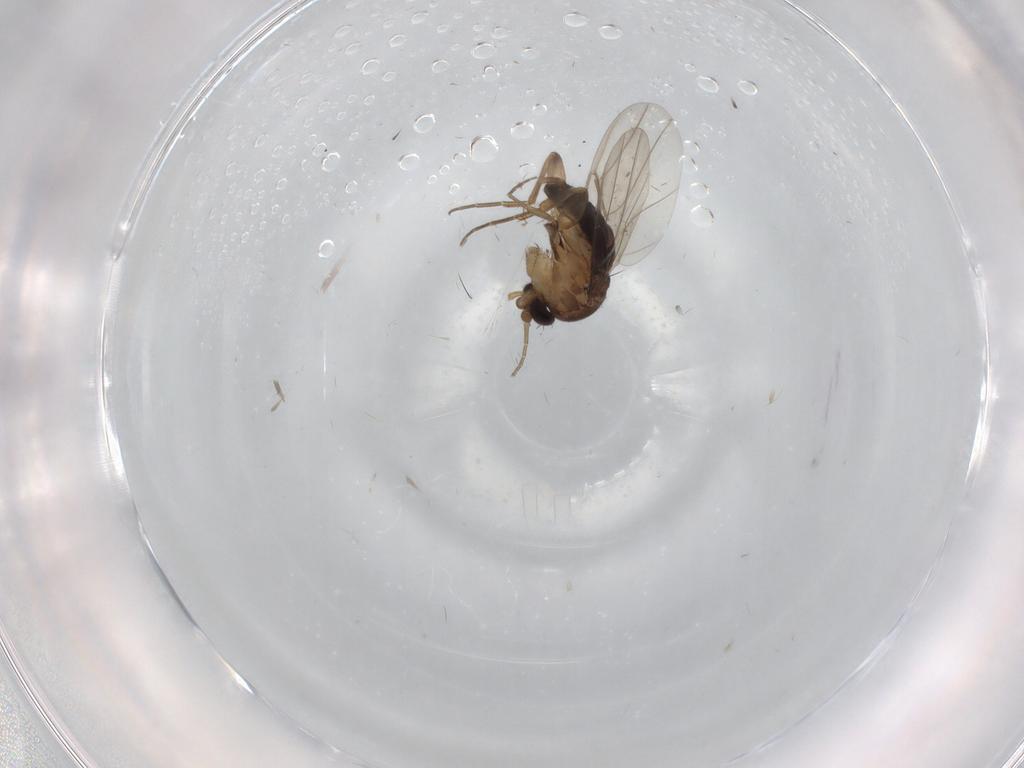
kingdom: Animalia
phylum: Arthropoda
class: Insecta
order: Diptera
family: Phoridae
